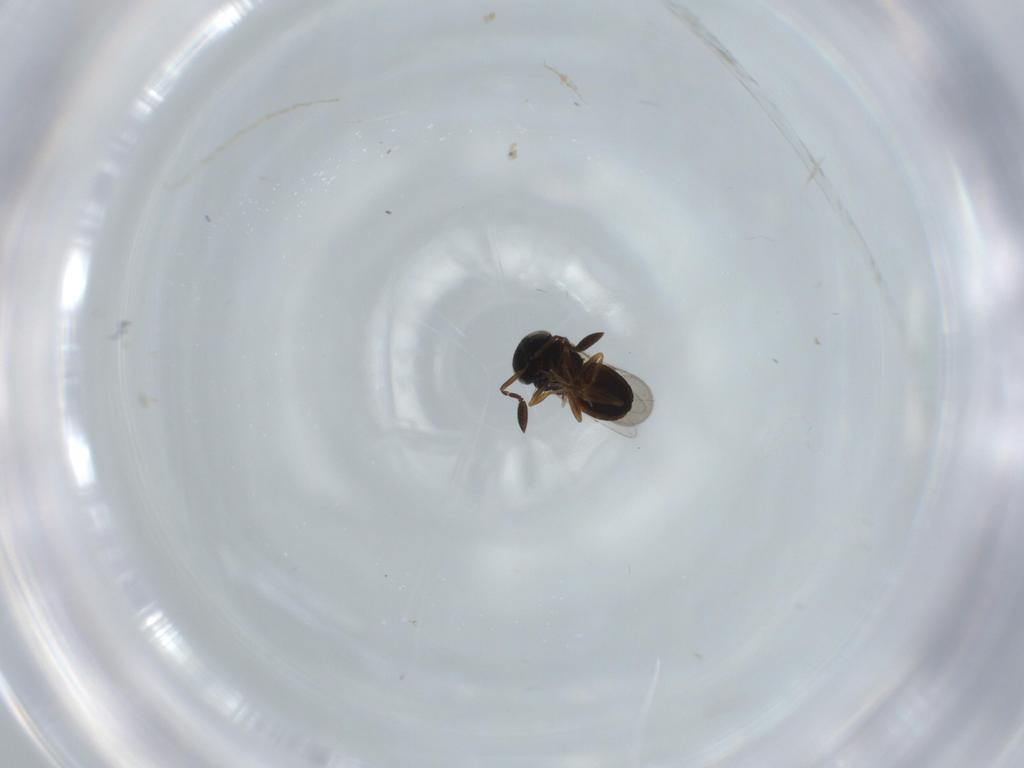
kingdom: Animalia
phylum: Arthropoda
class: Insecta
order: Hymenoptera
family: Scelionidae
